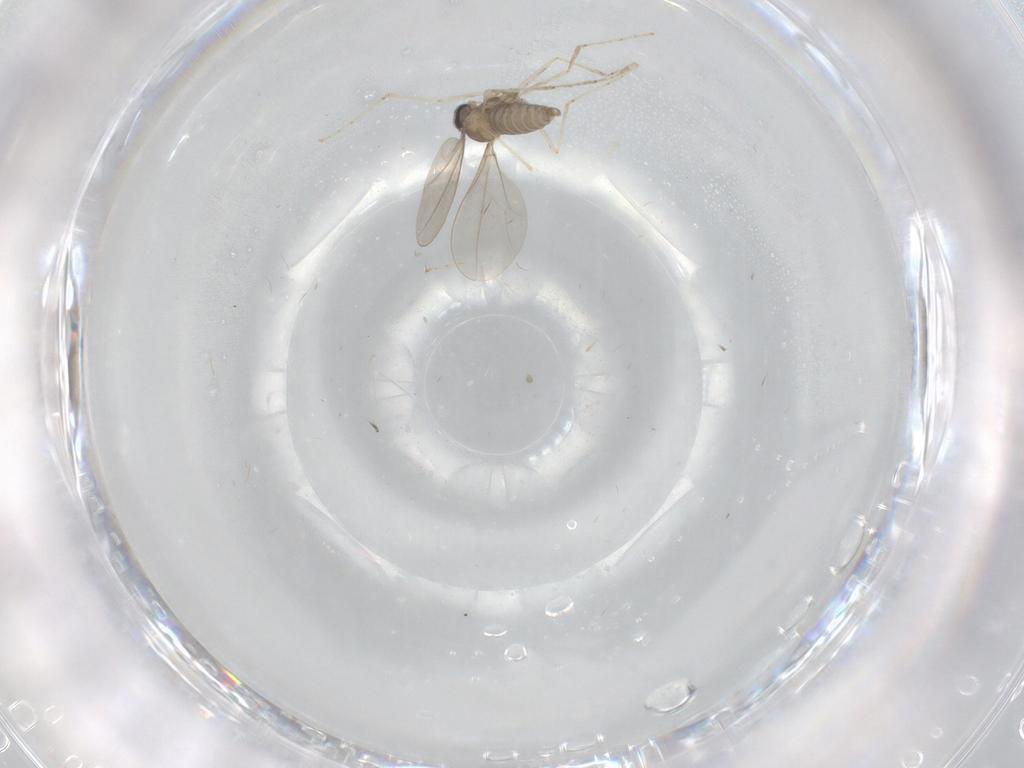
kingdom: Animalia
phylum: Arthropoda
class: Insecta
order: Diptera
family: Cecidomyiidae
